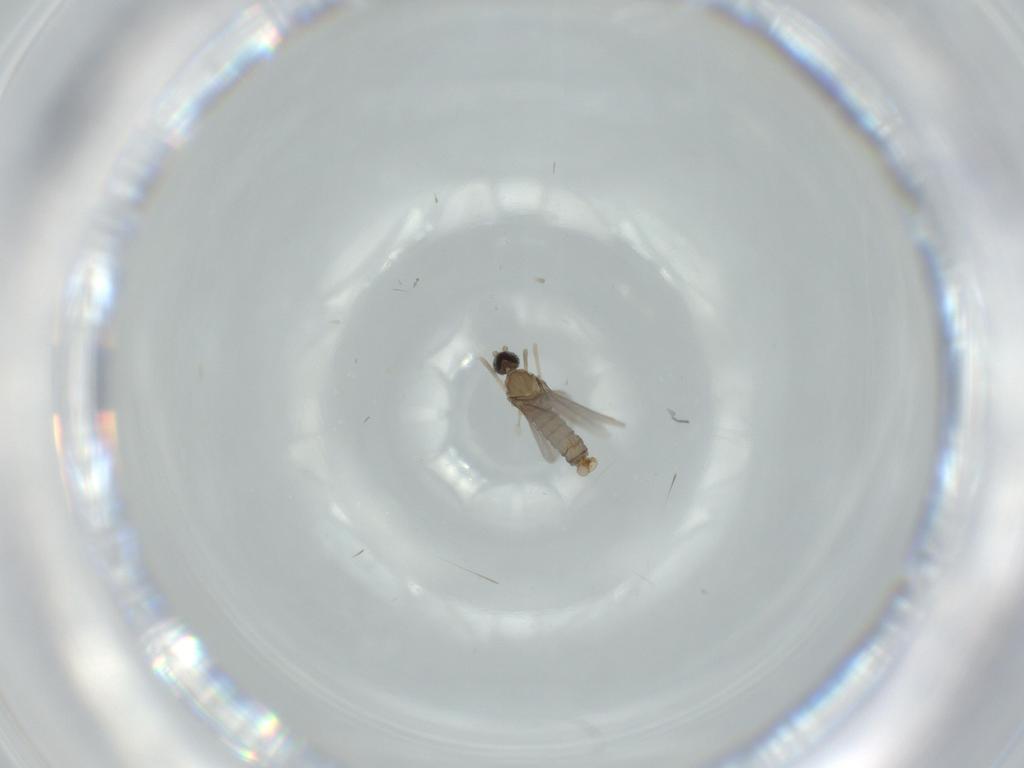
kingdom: Animalia
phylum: Arthropoda
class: Insecta
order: Diptera
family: Cecidomyiidae
